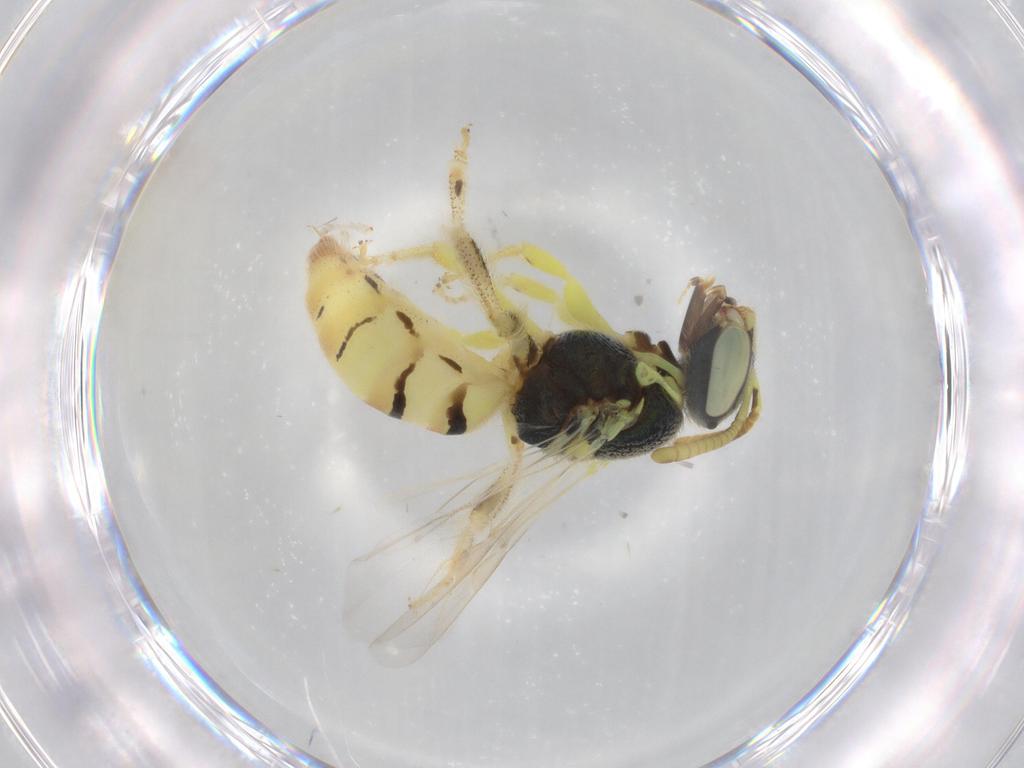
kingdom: Animalia
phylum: Arthropoda
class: Insecta
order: Hymenoptera
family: Halictidae
